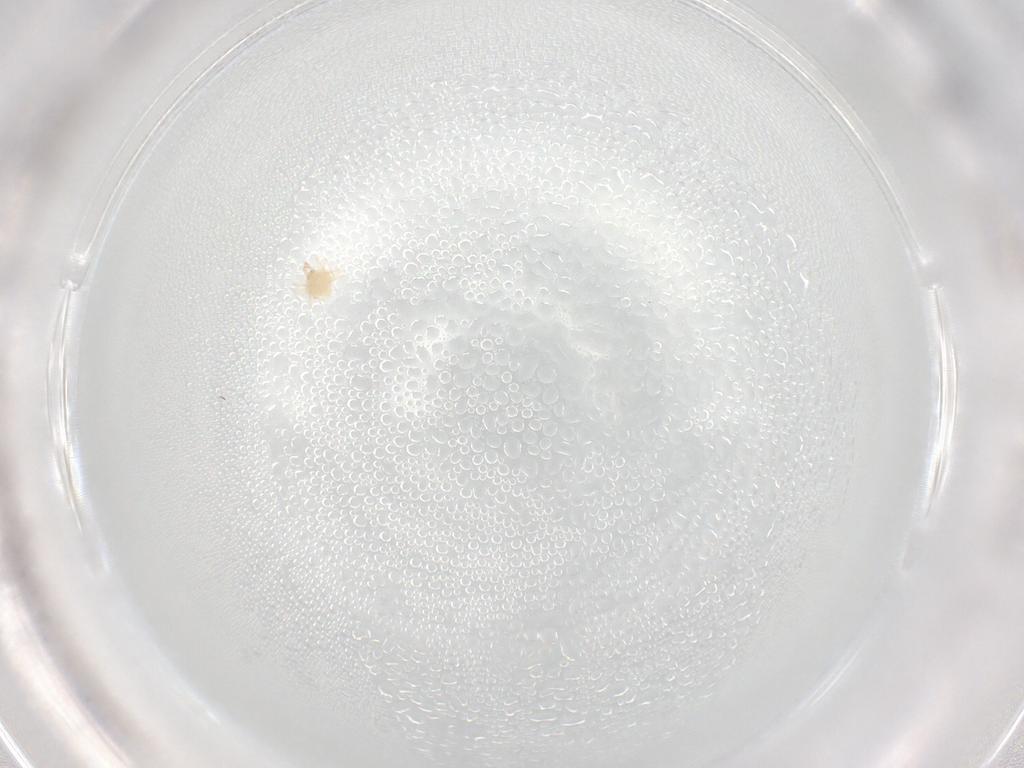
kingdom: Animalia
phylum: Arthropoda
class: Arachnida
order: Trombidiformes
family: Cunaxidae
